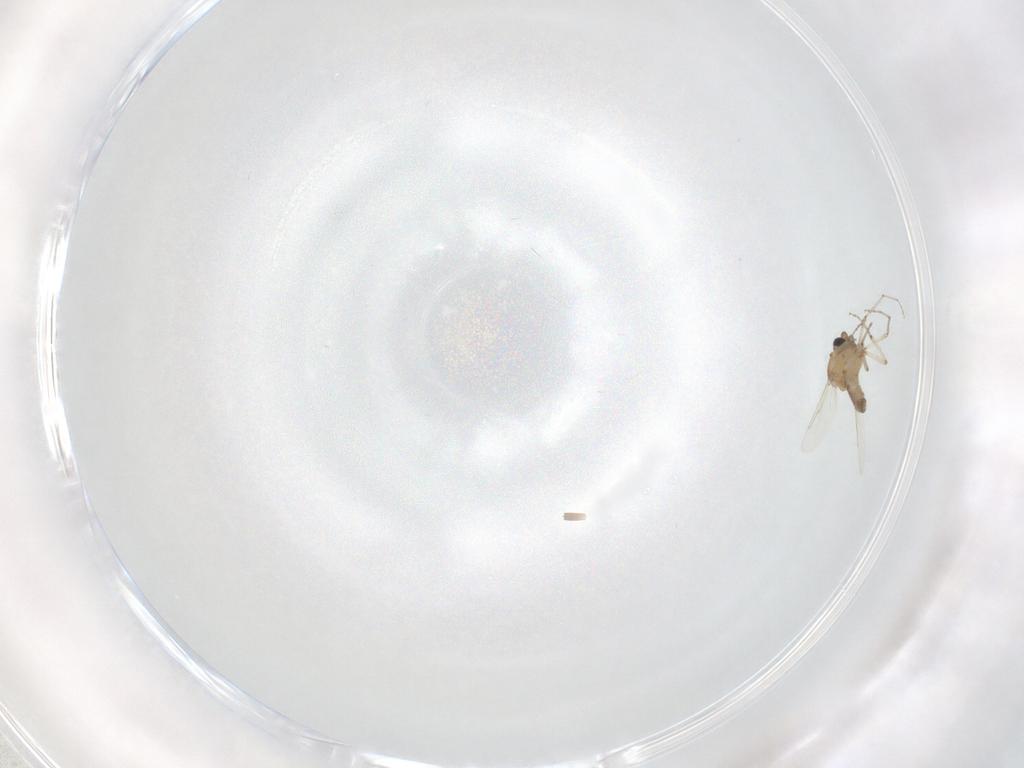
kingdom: Animalia
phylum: Arthropoda
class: Insecta
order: Diptera
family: Ceratopogonidae
